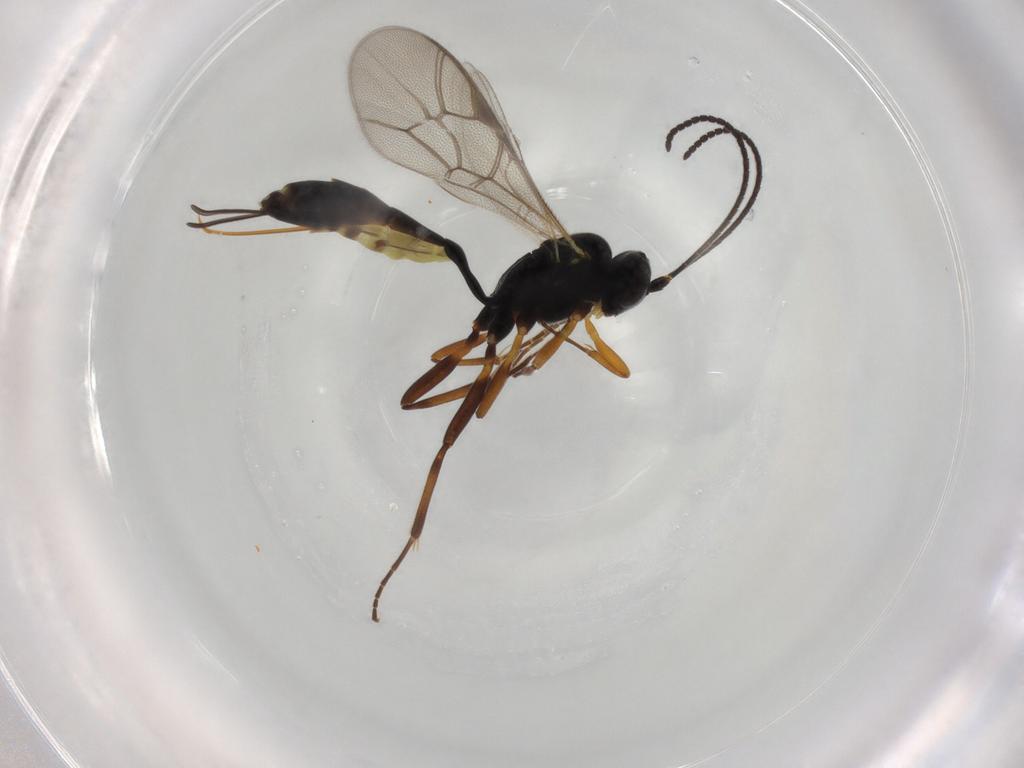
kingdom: Animalia
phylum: Arthropoda
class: Insecta
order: Hymenoptera
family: Ichneumonidae
